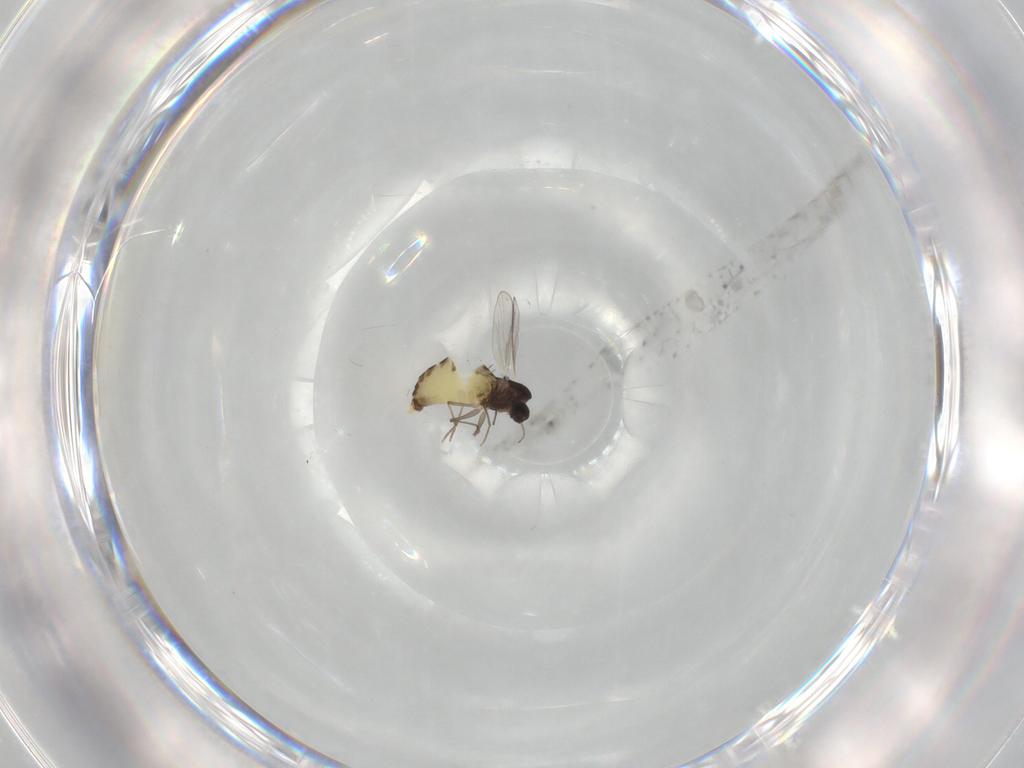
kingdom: Animalia
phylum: Arthropoda
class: Insecta
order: Diptera
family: Chironomidae
